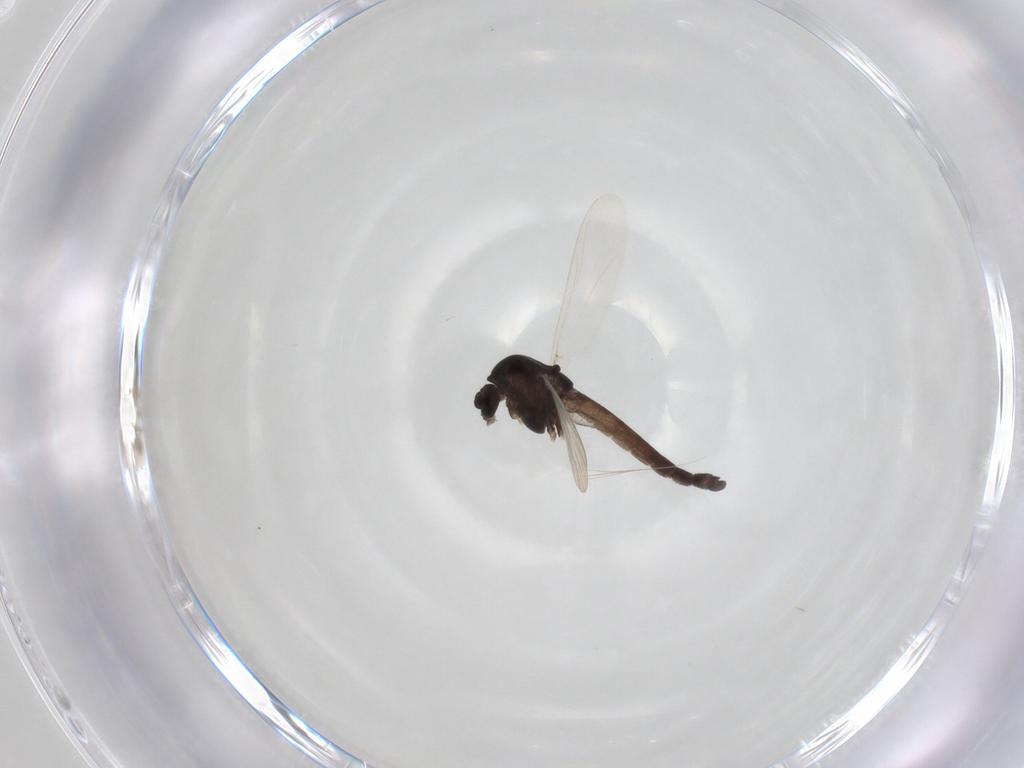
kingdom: Animalia
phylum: Arthropoda
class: Insecta
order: Diptera
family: Chironomidae
